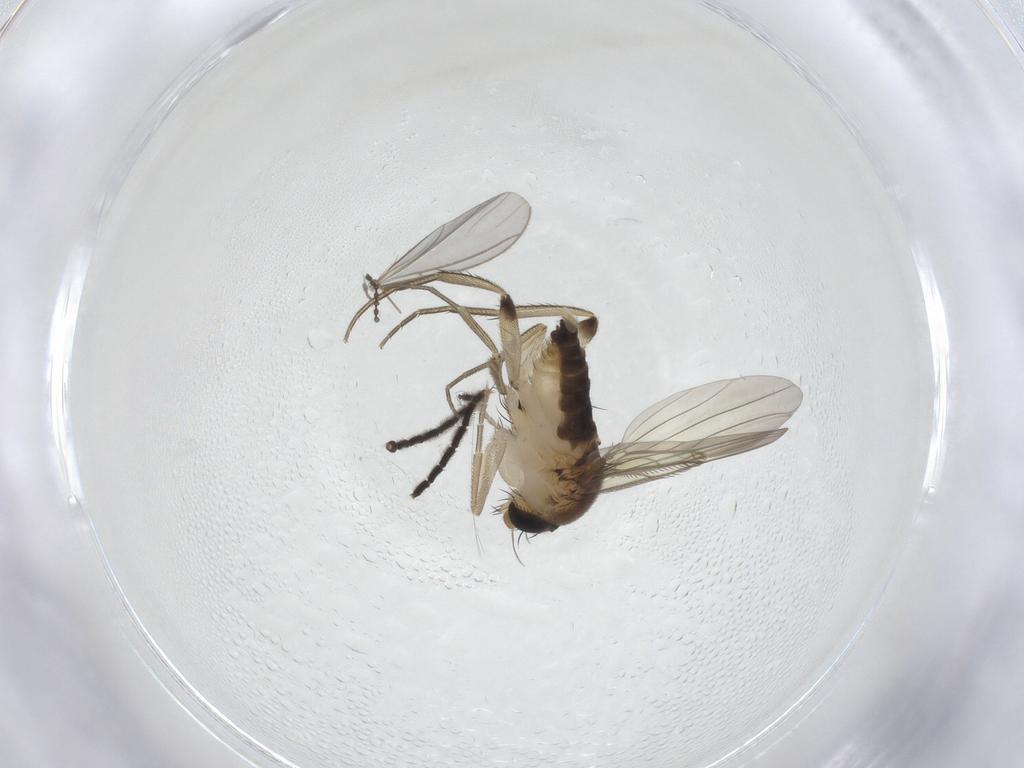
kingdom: Animalia
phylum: Arthropoda
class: Insecta
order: Diptera
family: Phoridae
